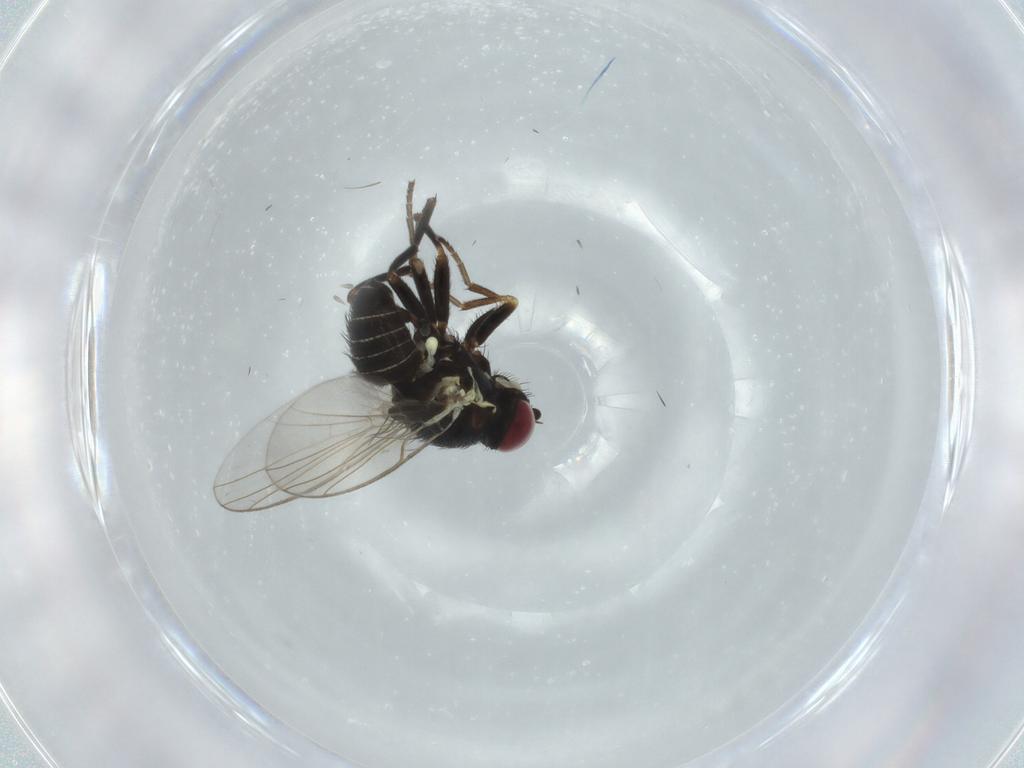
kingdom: Animalia
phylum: Arthropoda
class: Insecta
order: Diptera
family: Agromyzidae
